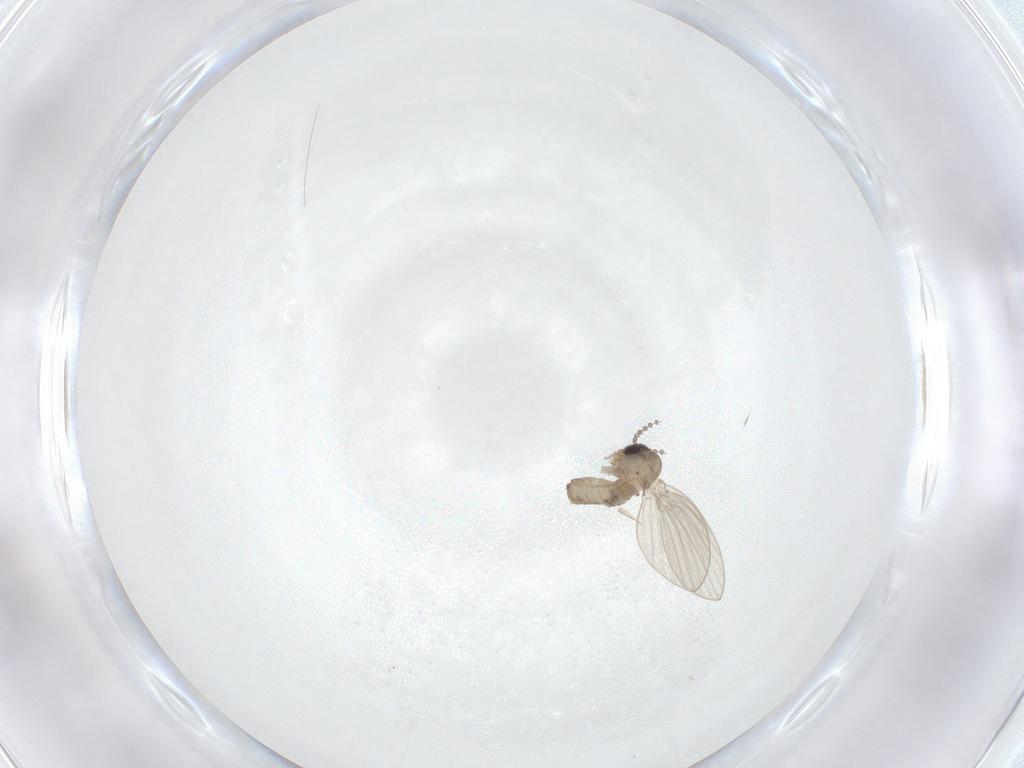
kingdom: Animalia
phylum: Arthropoda
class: Insecta
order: Diptera
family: Psychodidae
